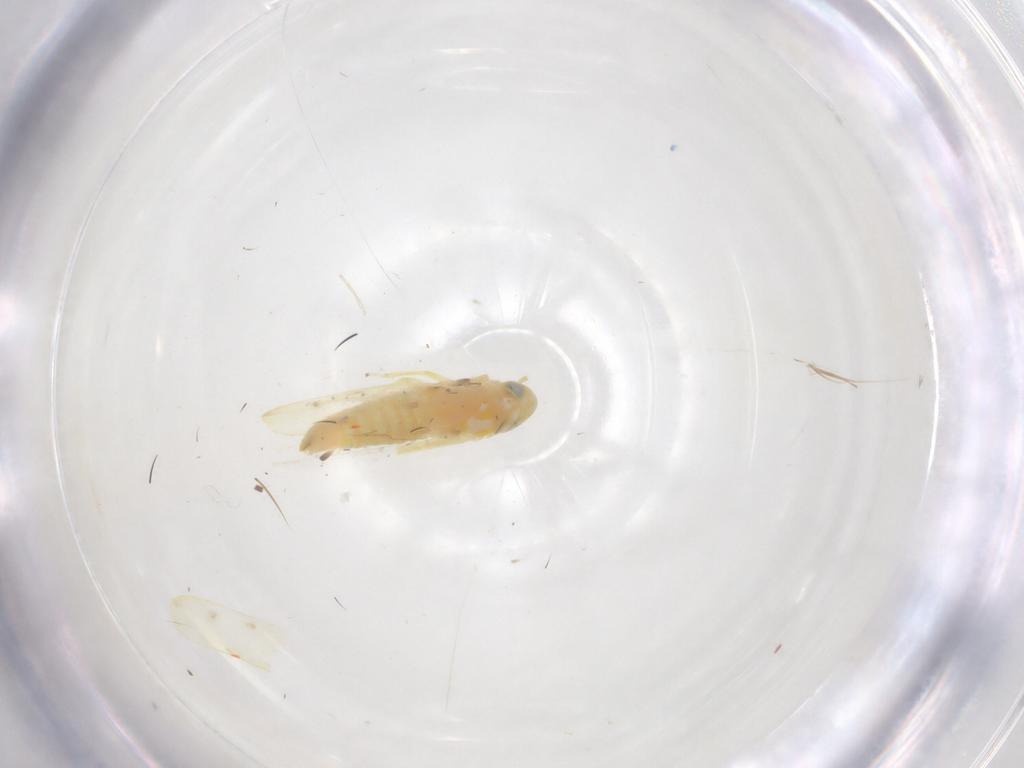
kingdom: Animalia
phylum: Arthropoda
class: Insecta
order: Hemiptera
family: Cicadellidae
